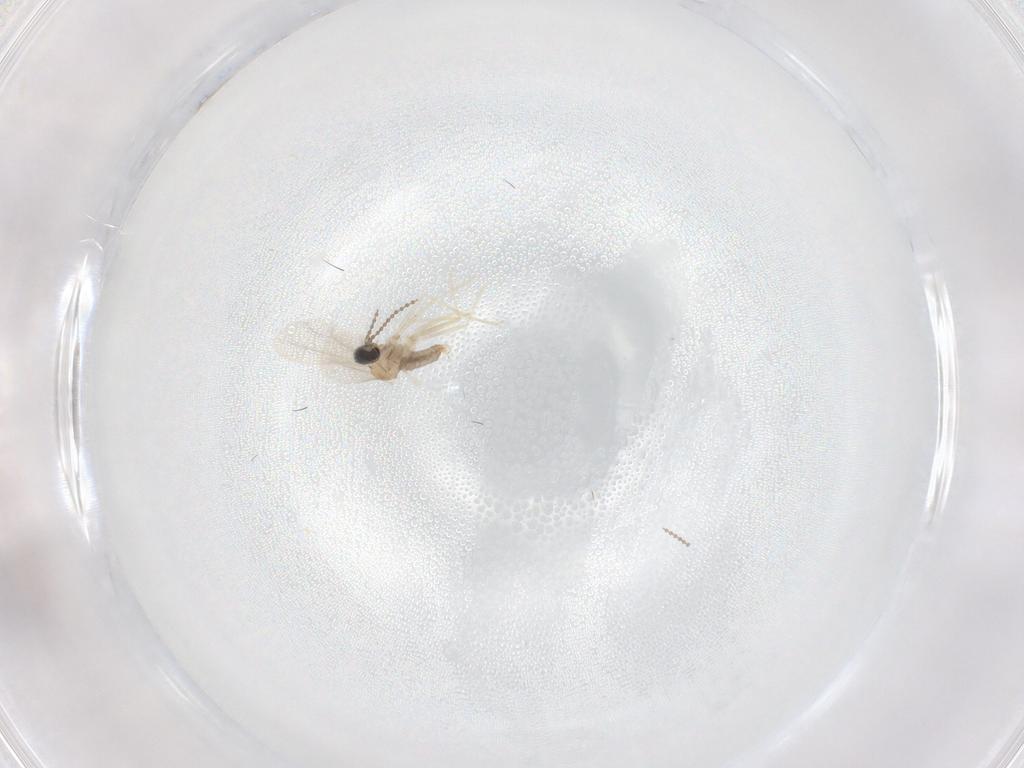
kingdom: Animalia
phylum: Arthropoda
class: Insecta
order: Diptera
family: Cecidomyiidae
